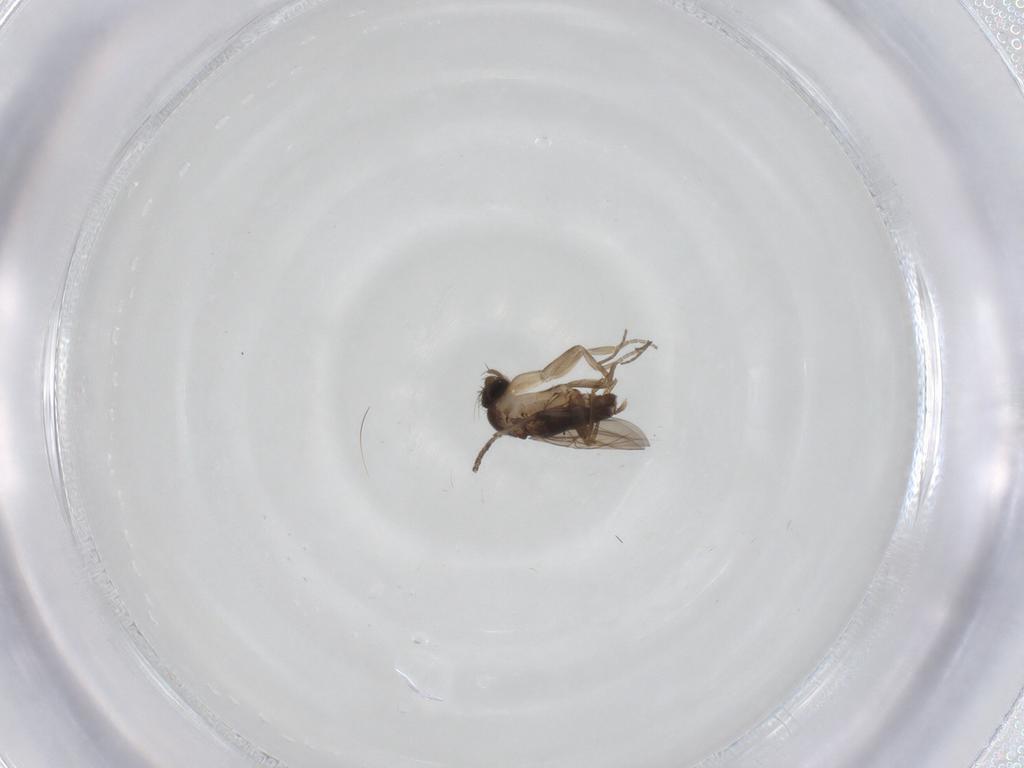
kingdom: Animalia
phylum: Arthropoda
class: Insecta
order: Diptera
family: Phoridae
